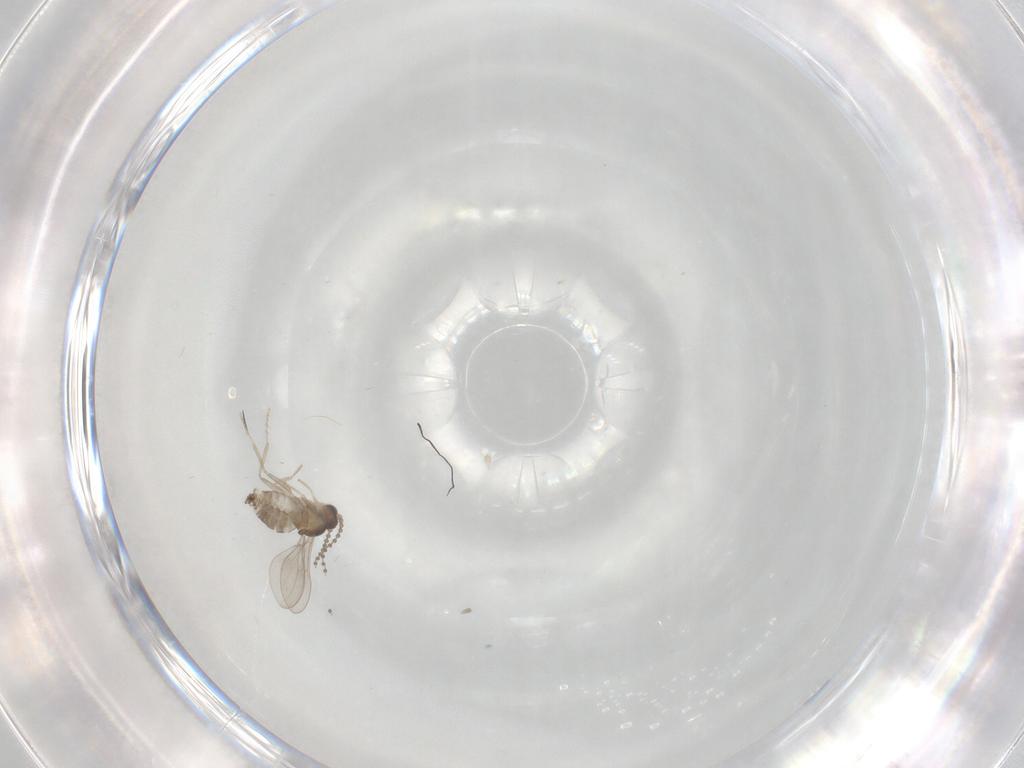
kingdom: Animalia
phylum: Arthropoda
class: Insecta
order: Diptera
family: Cecidomyiidae
